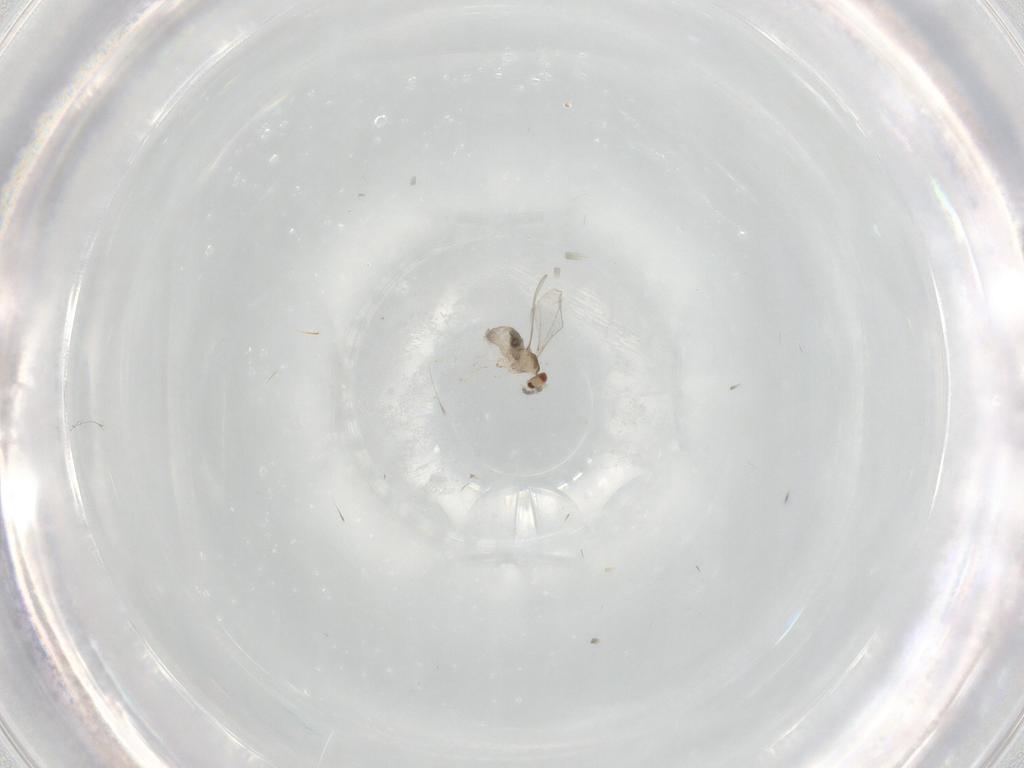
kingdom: Animalia
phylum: Arthropoda
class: Insecta
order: Diptera
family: Cecidomyiidae
